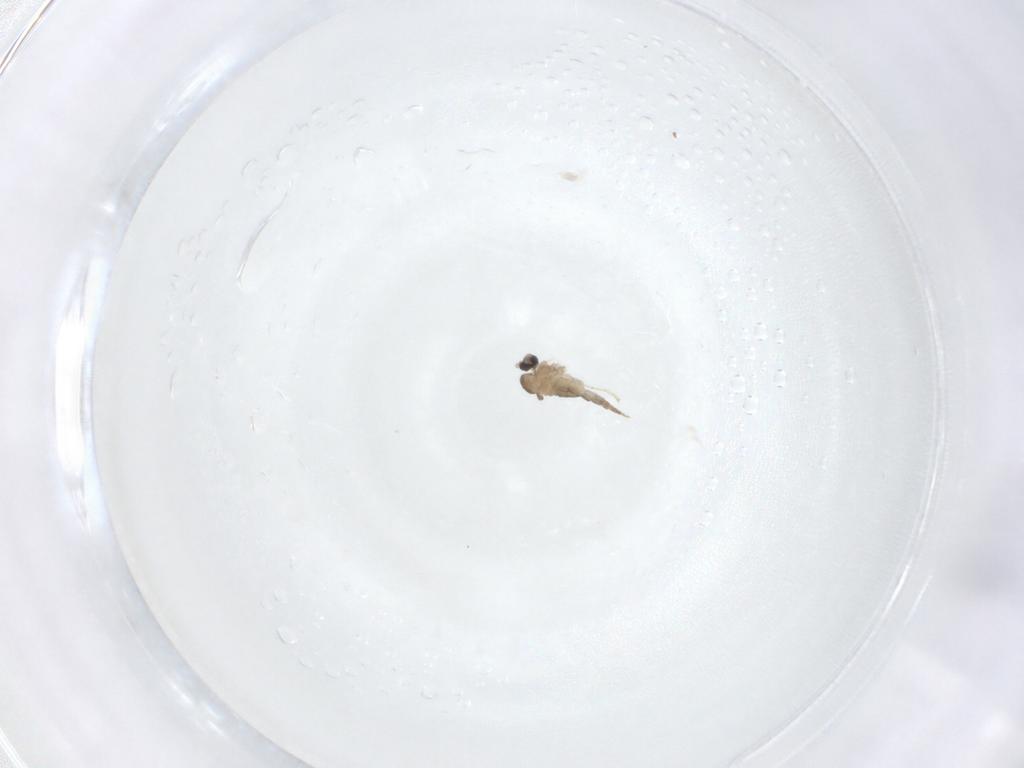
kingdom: Animalia
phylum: Arthropoda
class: Insecta
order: Diptera
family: Cecidomyiidae
